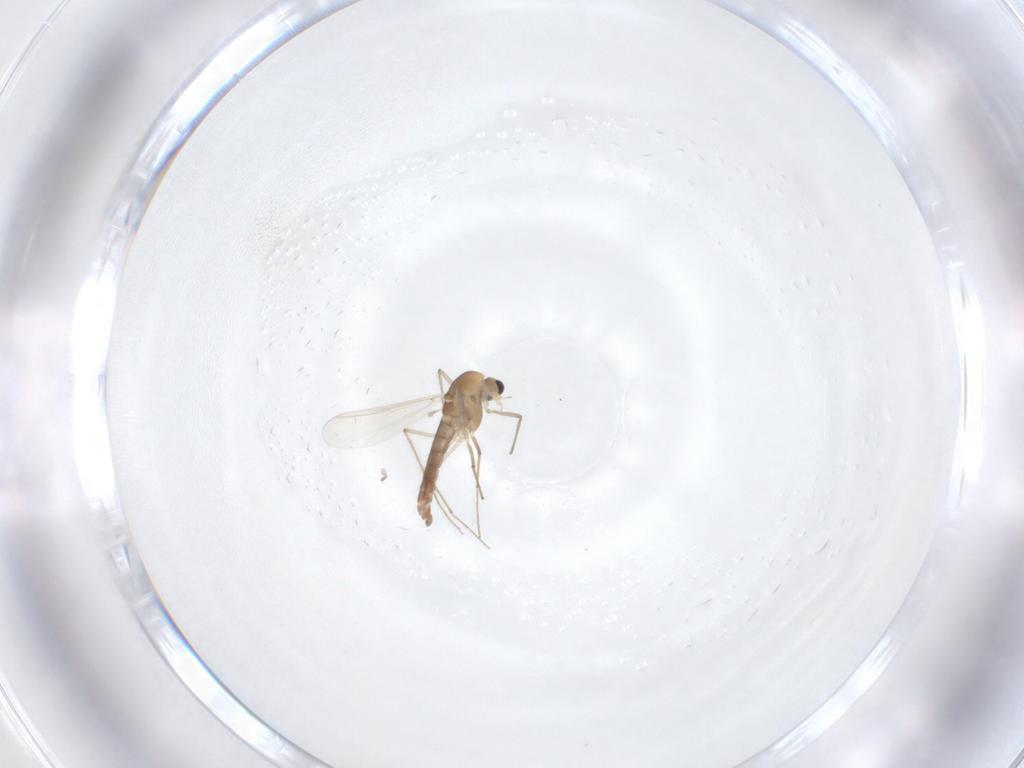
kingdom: Animalia
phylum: Arthropoda
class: Insecta
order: Diptera
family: Chironomidae
